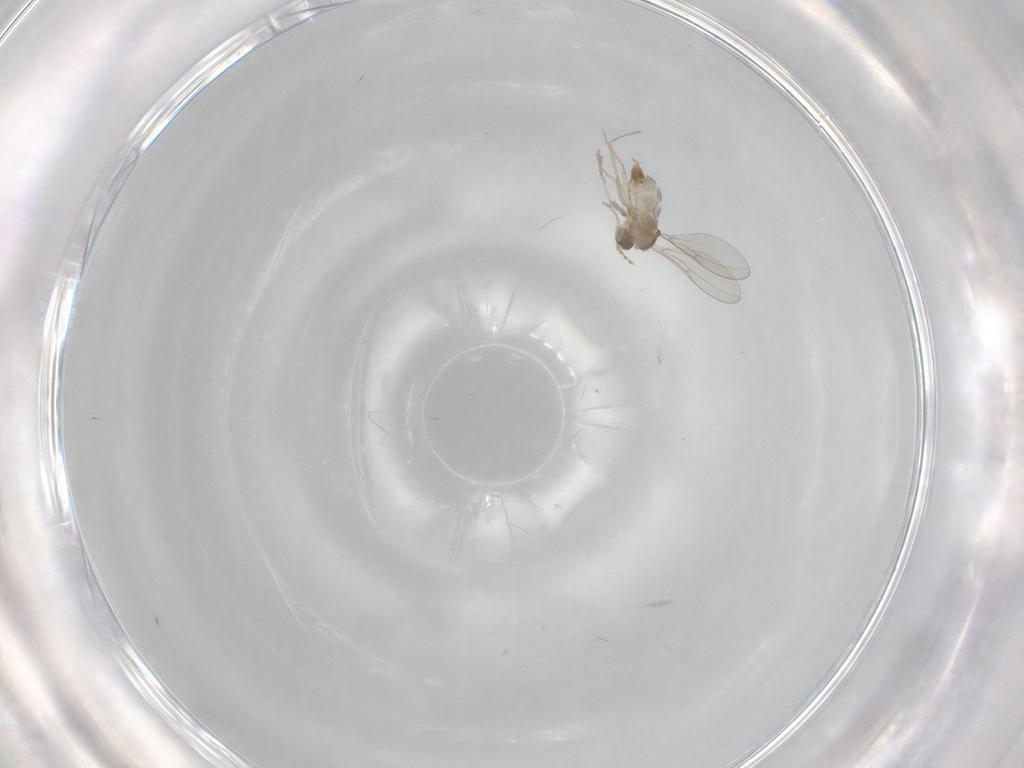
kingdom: Animalia
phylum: Arthropoda
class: Insecta
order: Diptera
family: Cecidomyiidae
